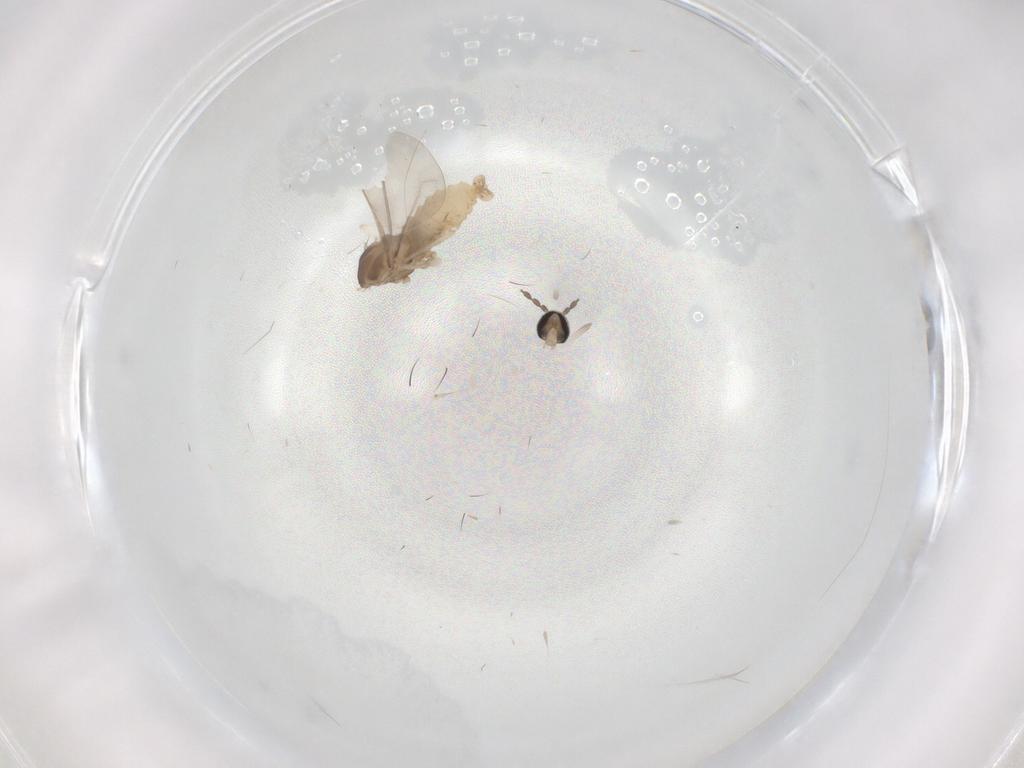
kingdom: Animalia
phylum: Arthropoda
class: Insecta
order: Diptera
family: Cecidomyiidae
